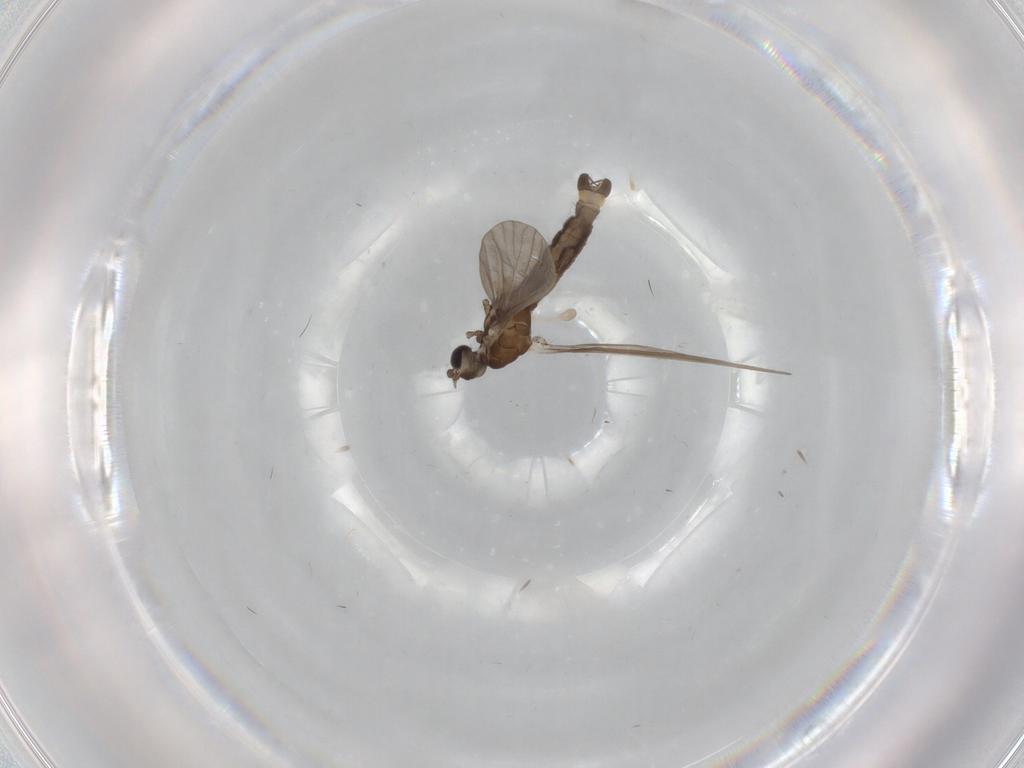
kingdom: Animalia
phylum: Arthropoda
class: Insecta
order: Diptera
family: Limoniidae
